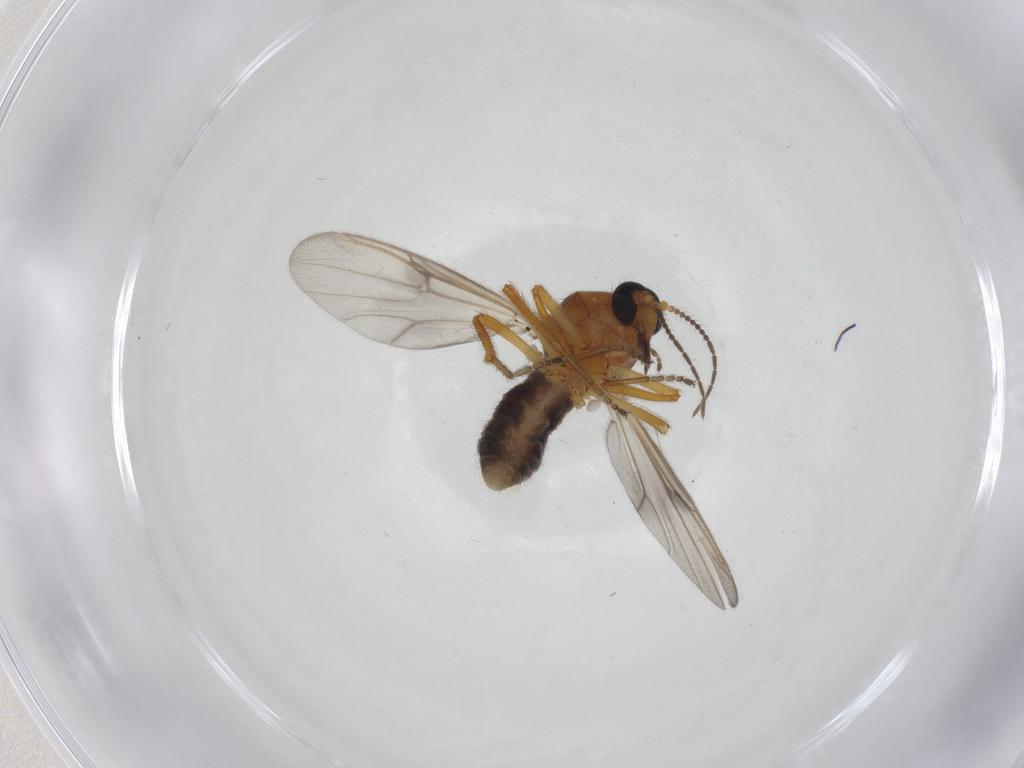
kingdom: Animalia
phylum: Arthropoda
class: Insecta
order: Diptera
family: Ceratopogonidae
